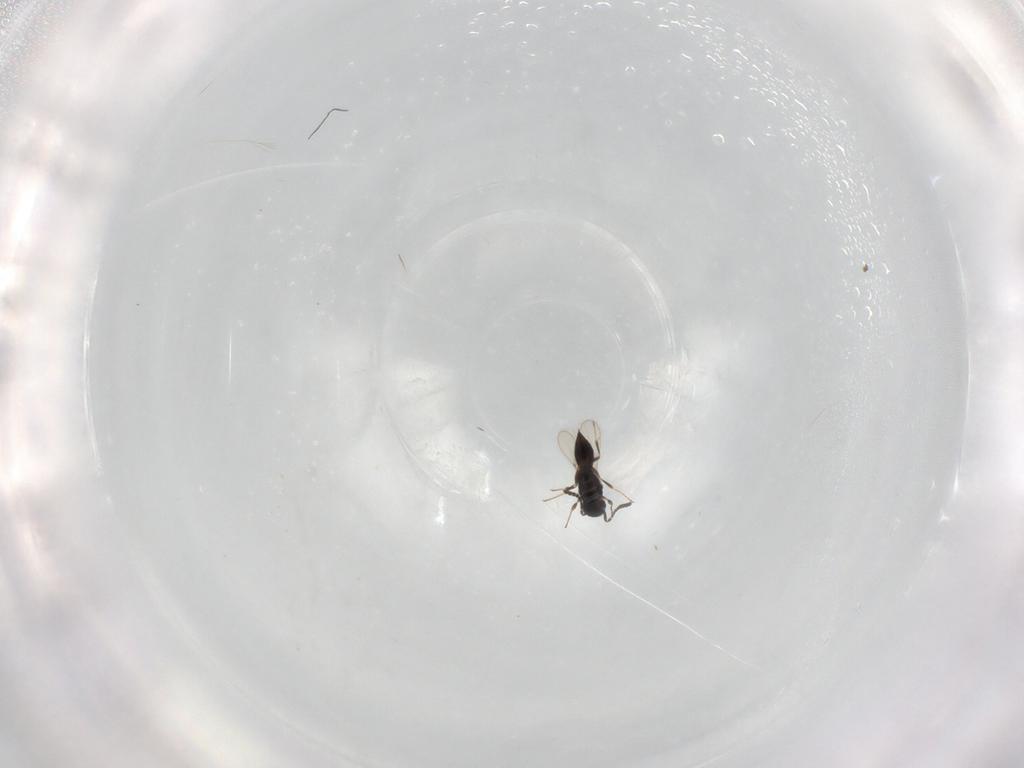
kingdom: Animalia
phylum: Arthropoda
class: Insecta
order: Hymenoptera
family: Scelionidae
